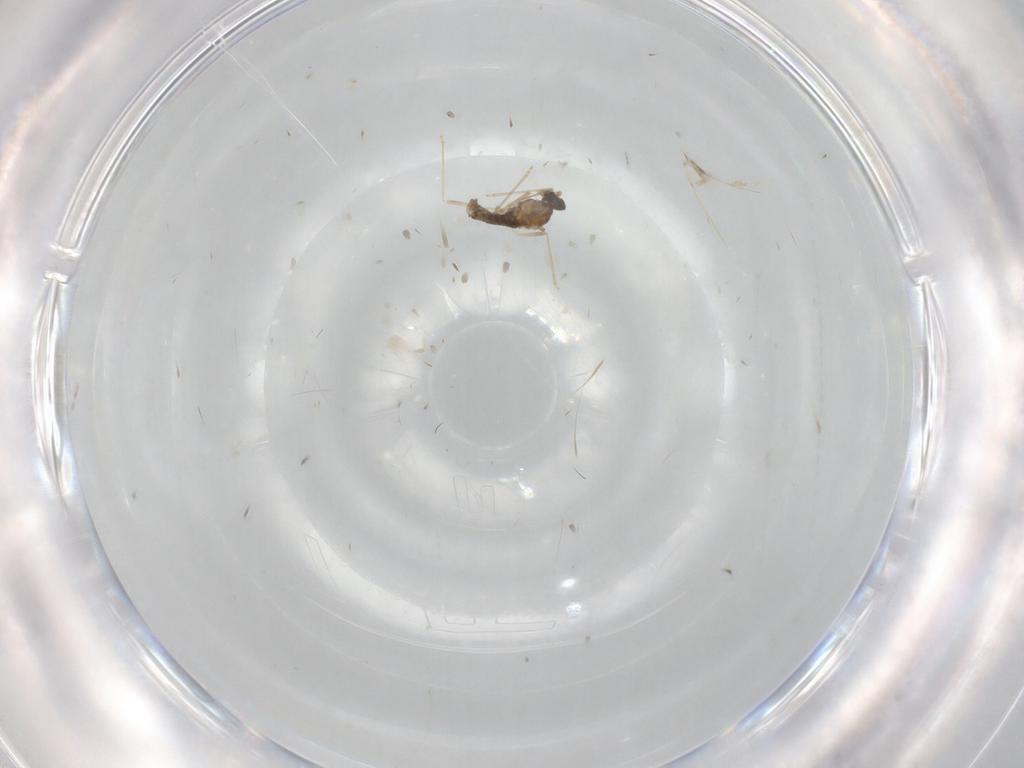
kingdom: Animalia
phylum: Arthropoda
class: Insecta
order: Diptera
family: Cecidomyiidae
